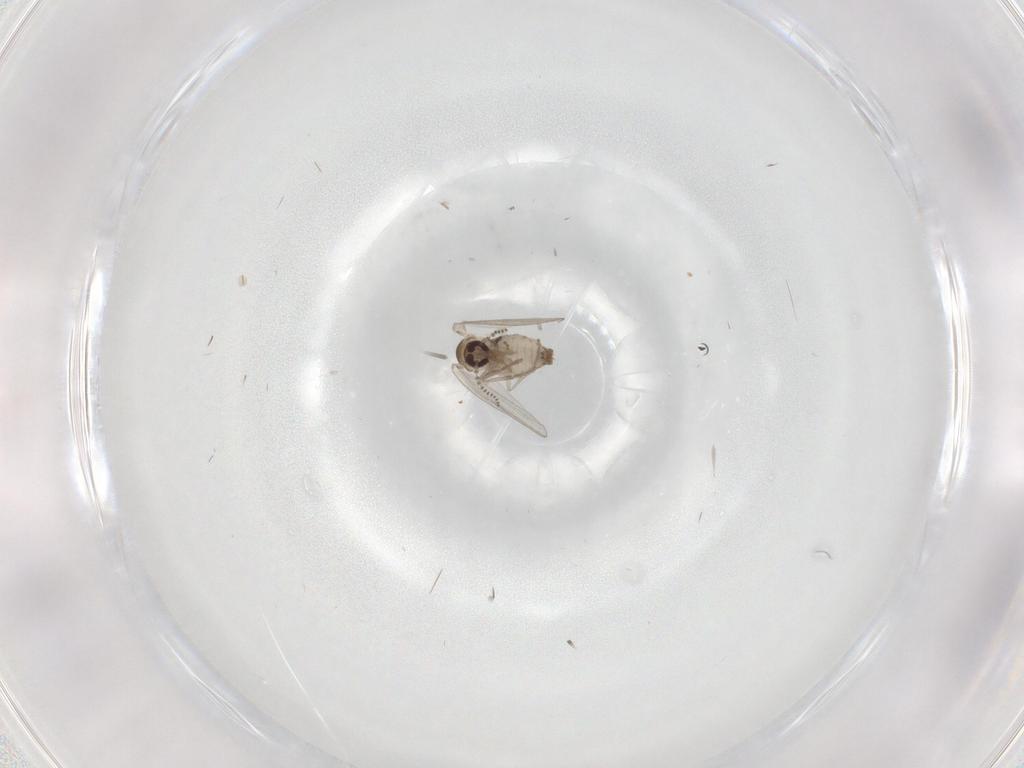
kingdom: Animalia
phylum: Arthropoda
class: Insecta
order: Diptera
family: Psychodidae
